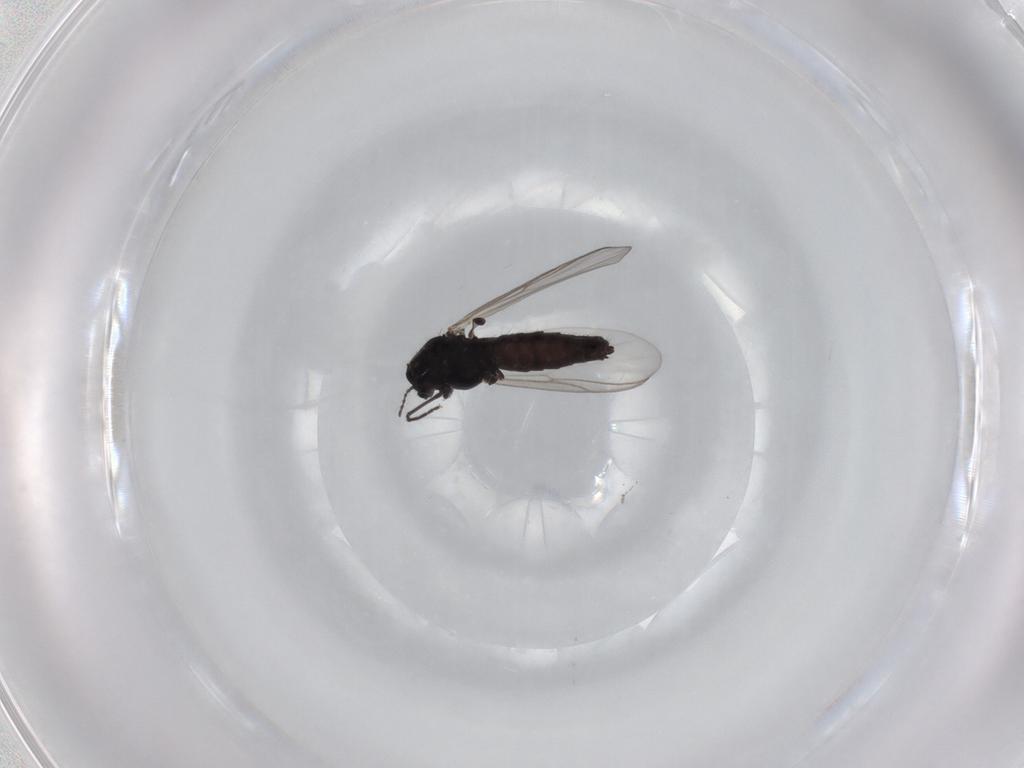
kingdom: Animalia
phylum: Arthropoda
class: Insecta
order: Diptera
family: Chironomidae
